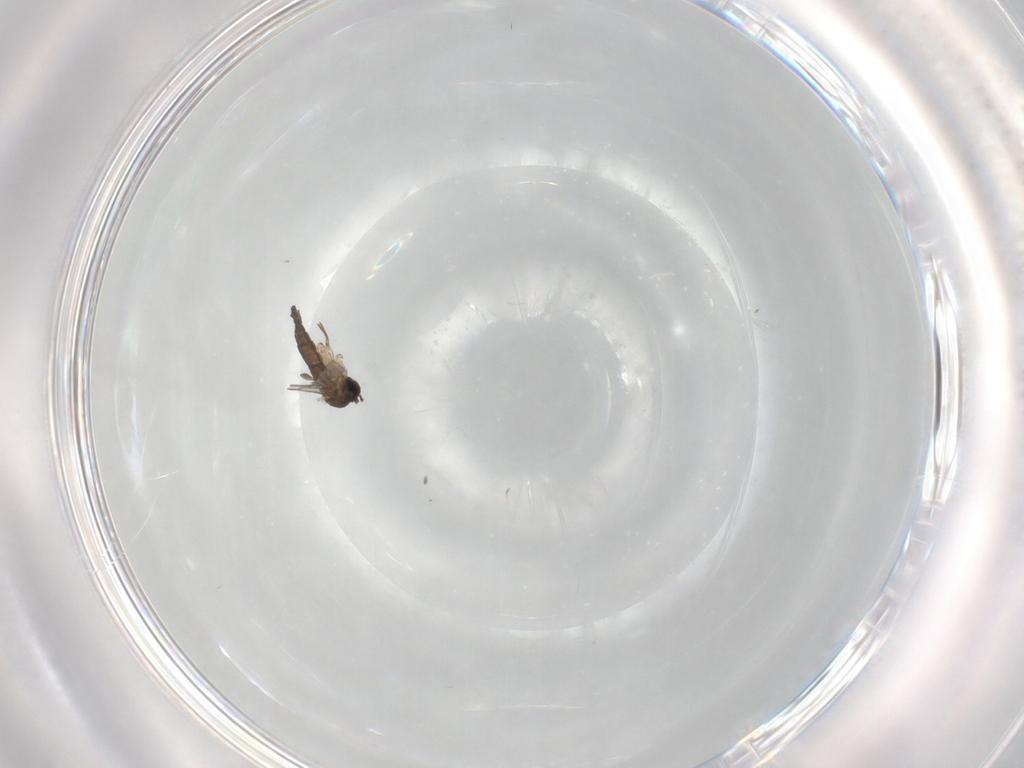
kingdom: Animalia
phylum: Arthropoda
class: Insecta
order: Diptera
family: Sciaridae
